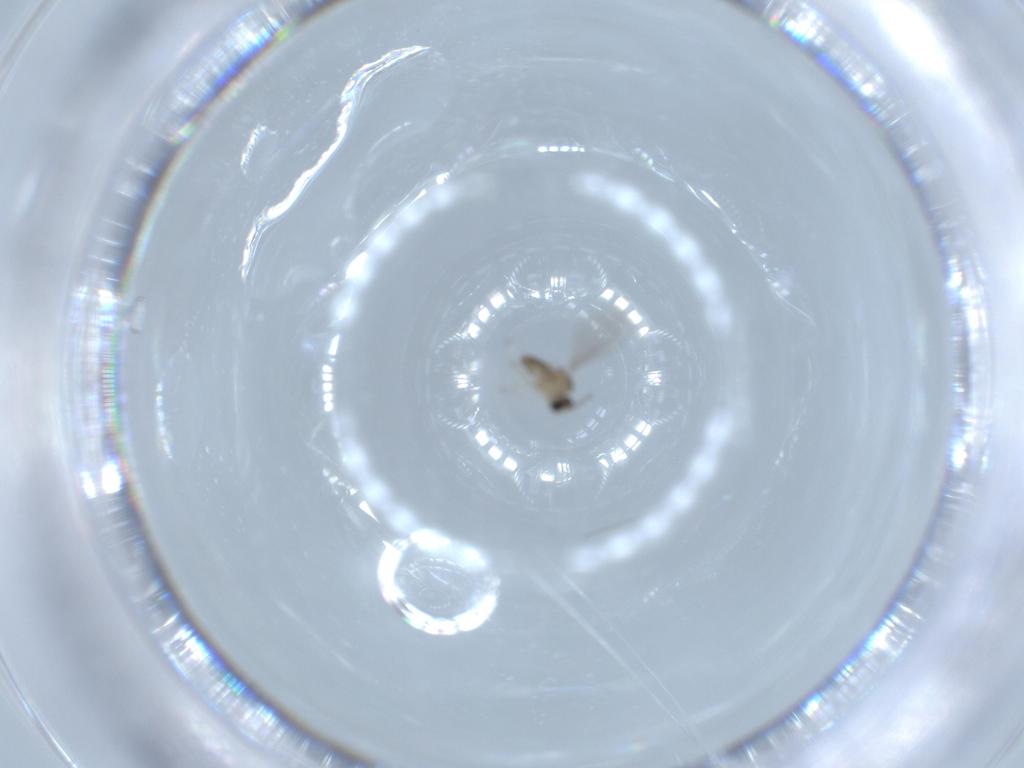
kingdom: Animalia
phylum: Arthropoda
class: Insecta
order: Diptera
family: Cecidomyiidae
